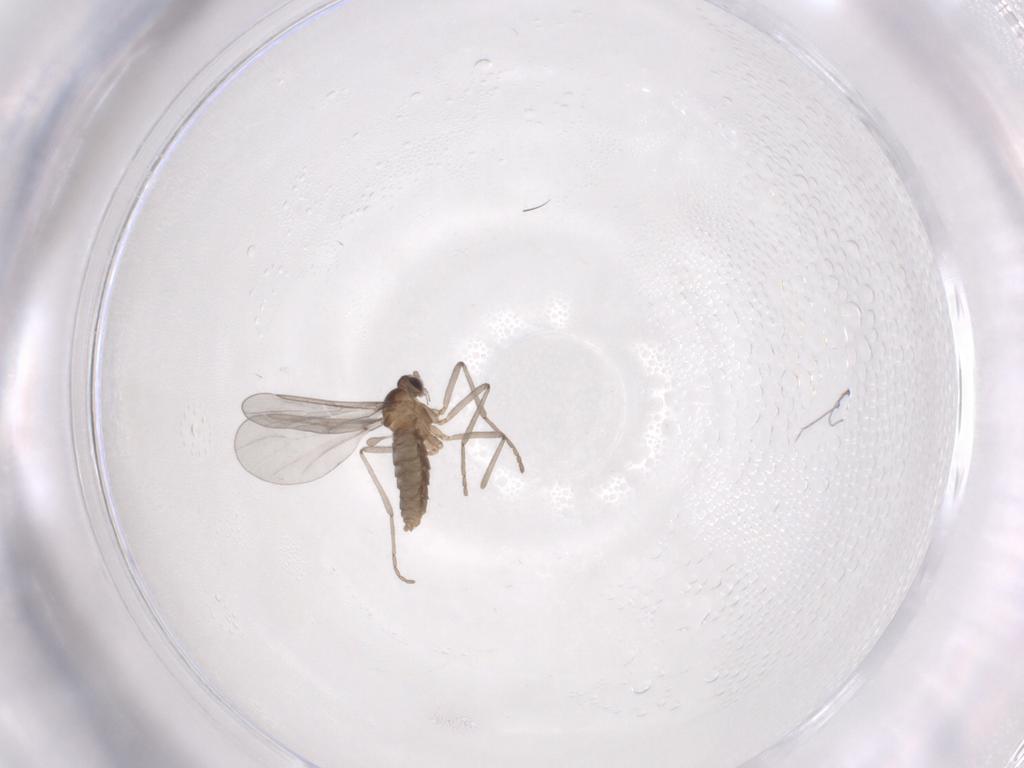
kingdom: Animalia
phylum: Arthropoda
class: Insecta
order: Diptera
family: Cecidomyiidae
